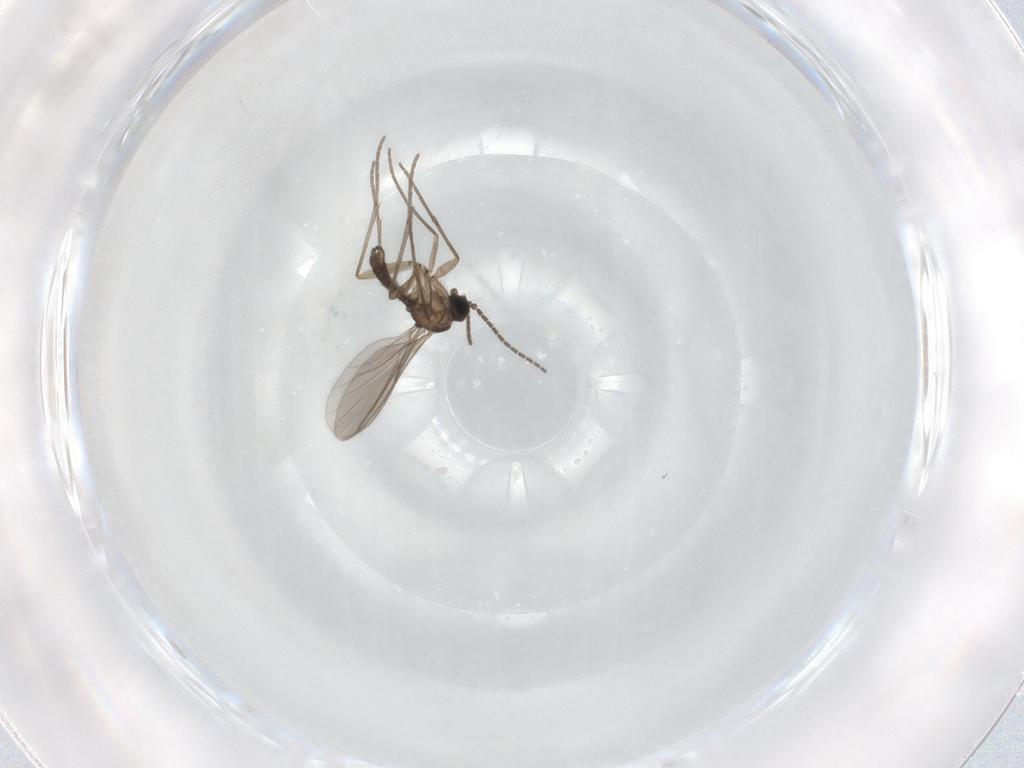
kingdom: Animalia
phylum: Arthropoda
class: Insecta
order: Diptera
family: Sciaridae
